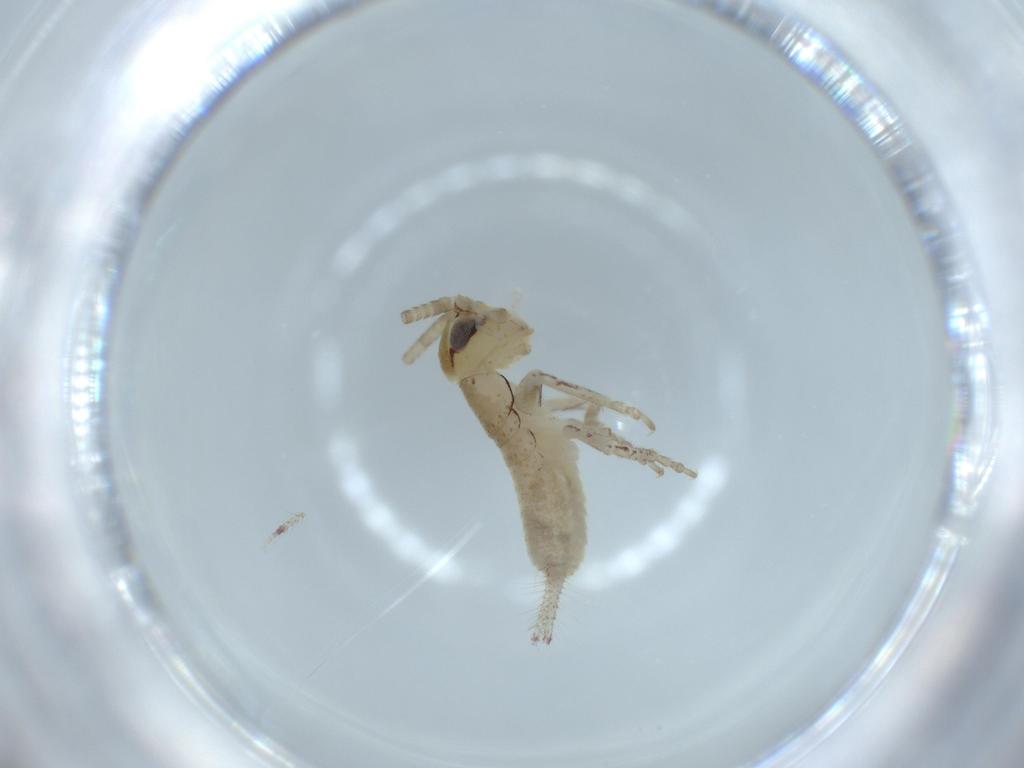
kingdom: Animalia
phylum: Arthropoda
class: Insecta
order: Orthoptera
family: Gryllidae
